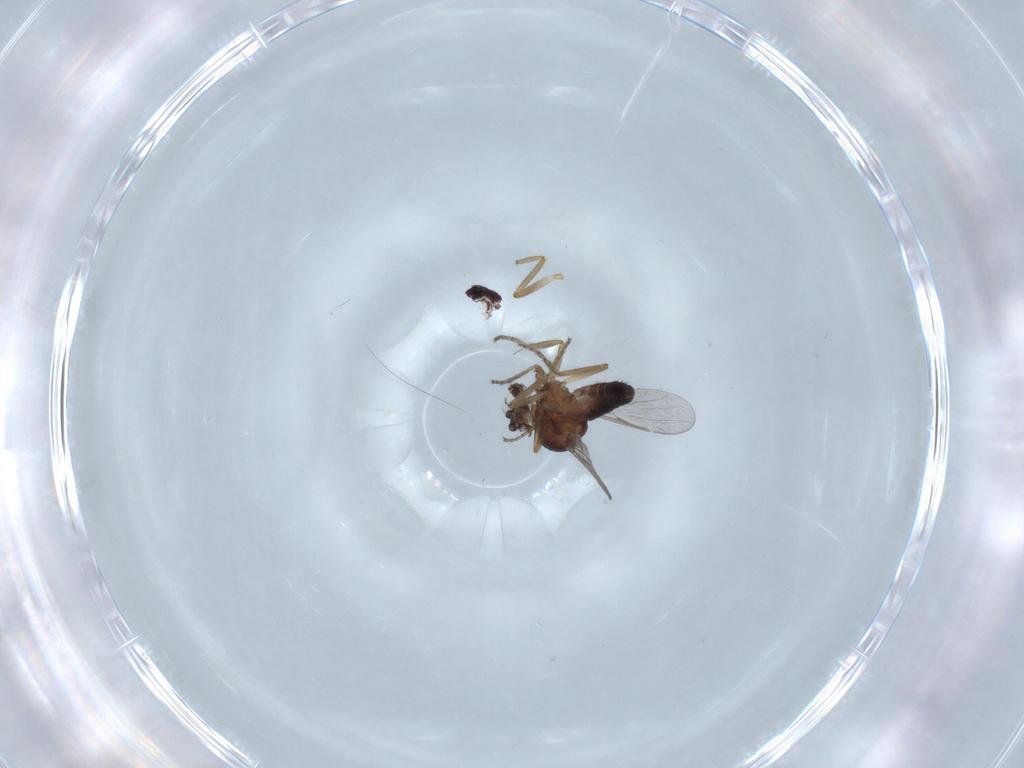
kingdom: Animalia
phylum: Arthropoda
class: Insecta
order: Diptera
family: Ceratopogonidae
